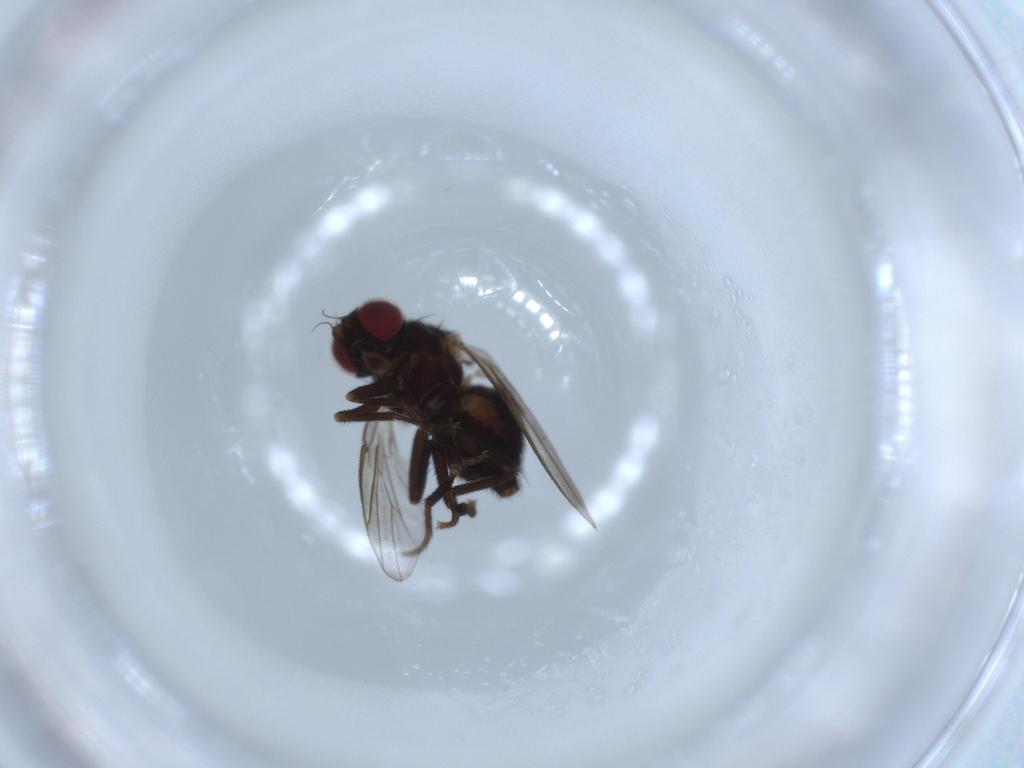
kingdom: Animalia
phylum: Arthropoda
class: Insecta
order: Diptera
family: Agromyzidae
